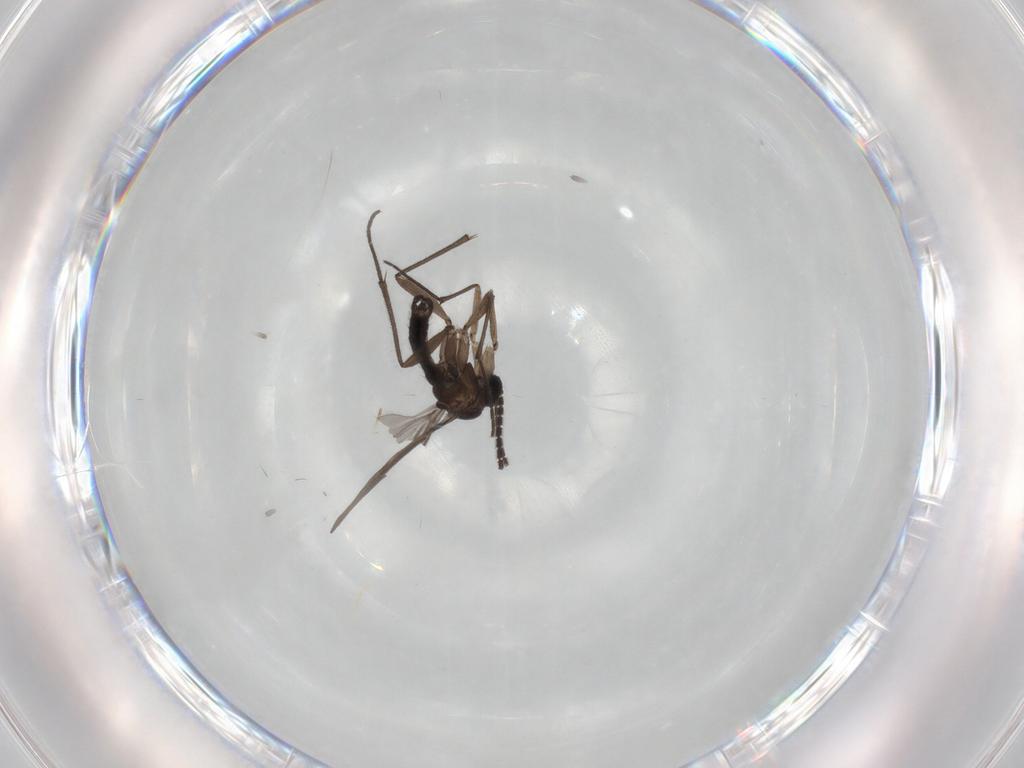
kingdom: Animalia
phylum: Arthropoda
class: Insecta
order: Diptera
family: Sciaridae
